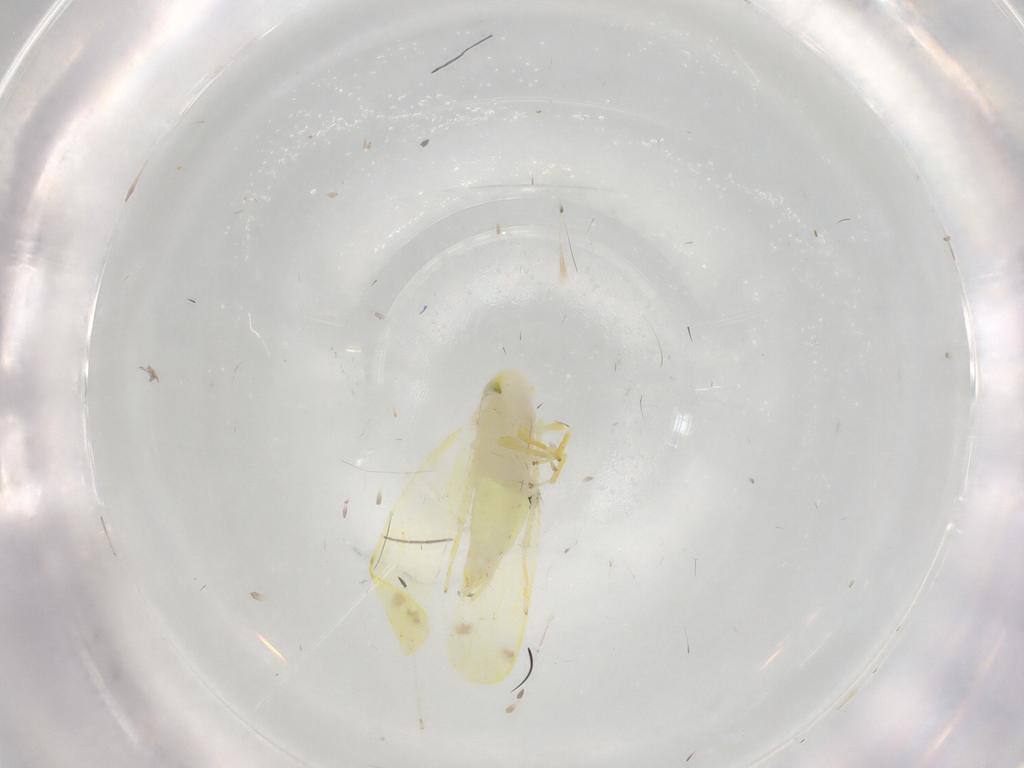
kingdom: Animalia
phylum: Arthropoda
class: Insecta
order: Hemiptera
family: Cicadellidae
